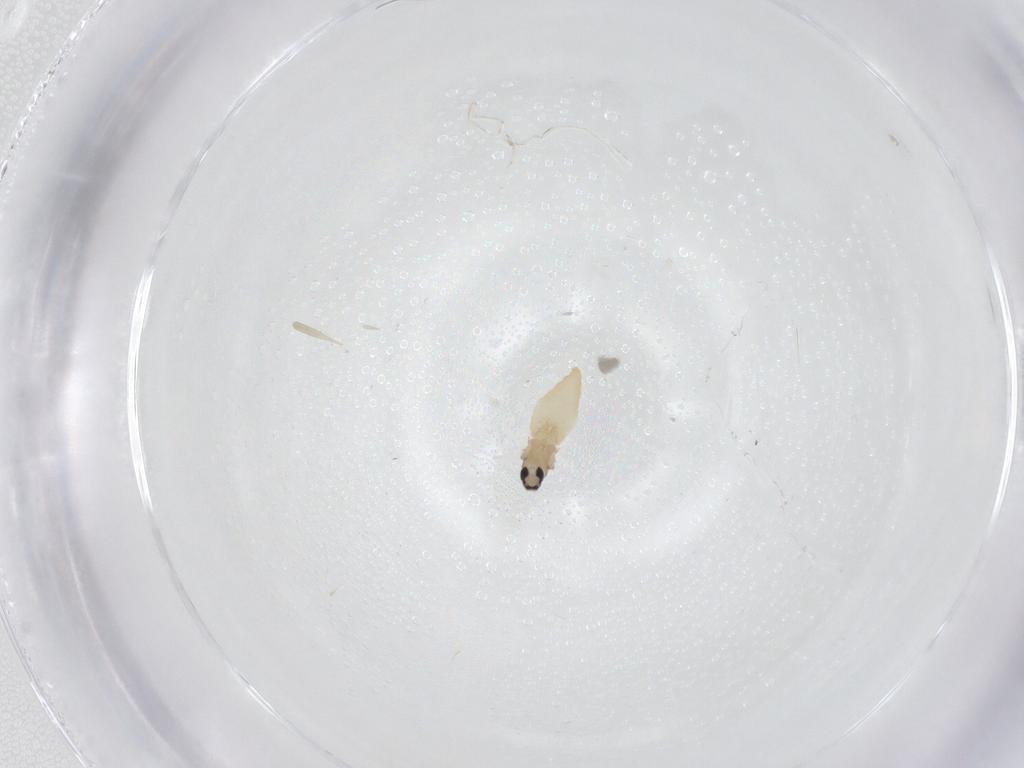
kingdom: Animalia
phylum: Arthropoda
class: Insecta
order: Diptera
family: Cecidomyiidae
